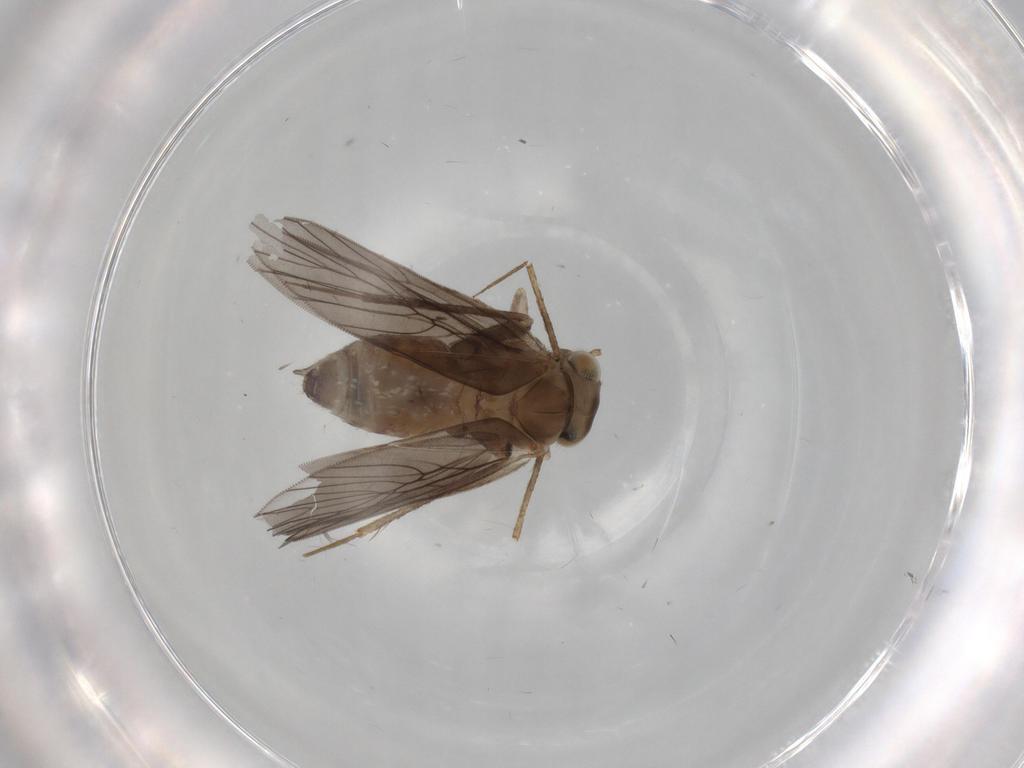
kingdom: Animalia
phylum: Arthropoda
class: Insecta
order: Psocodea
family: Lepidopsocidae
